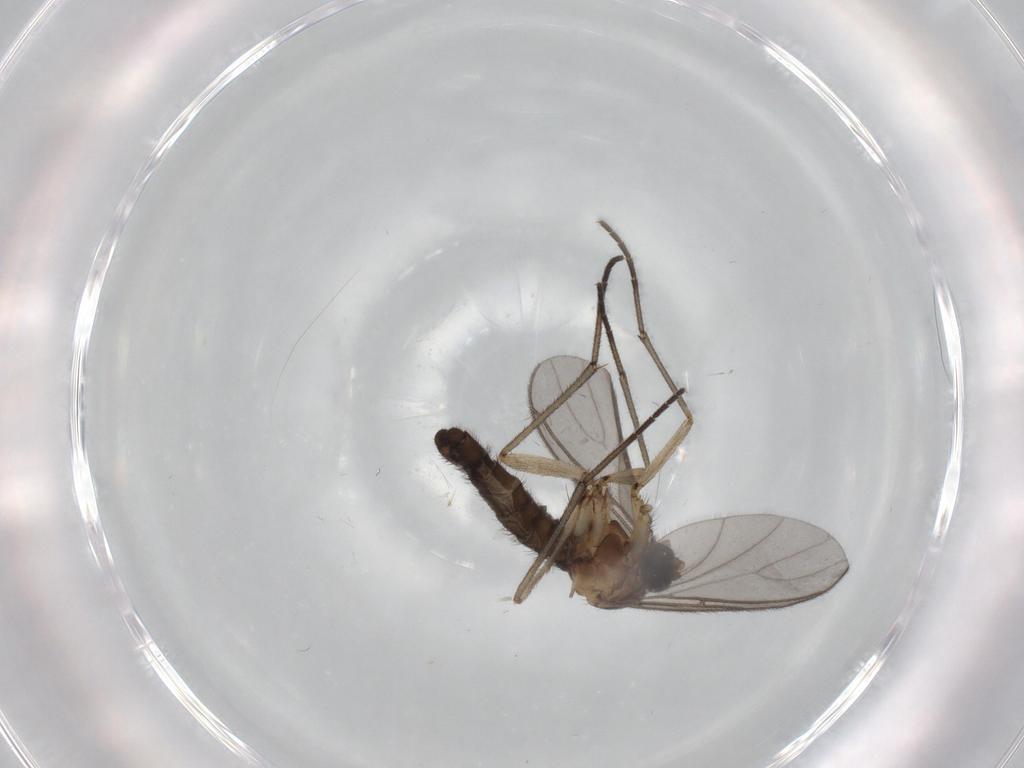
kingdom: Animalia
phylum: Arthropoda
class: Insecta
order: Diptera
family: Sciaridae
